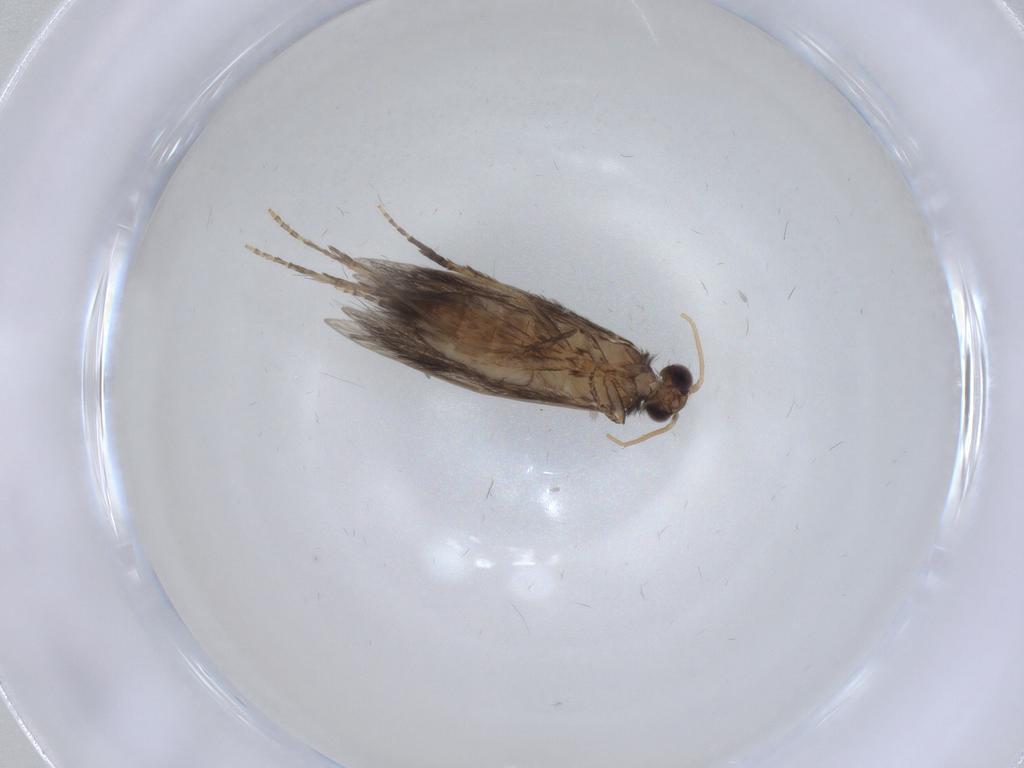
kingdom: Animalia
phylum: Arthropoda
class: Insecta
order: Trichoptera
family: Hydroptilidae
